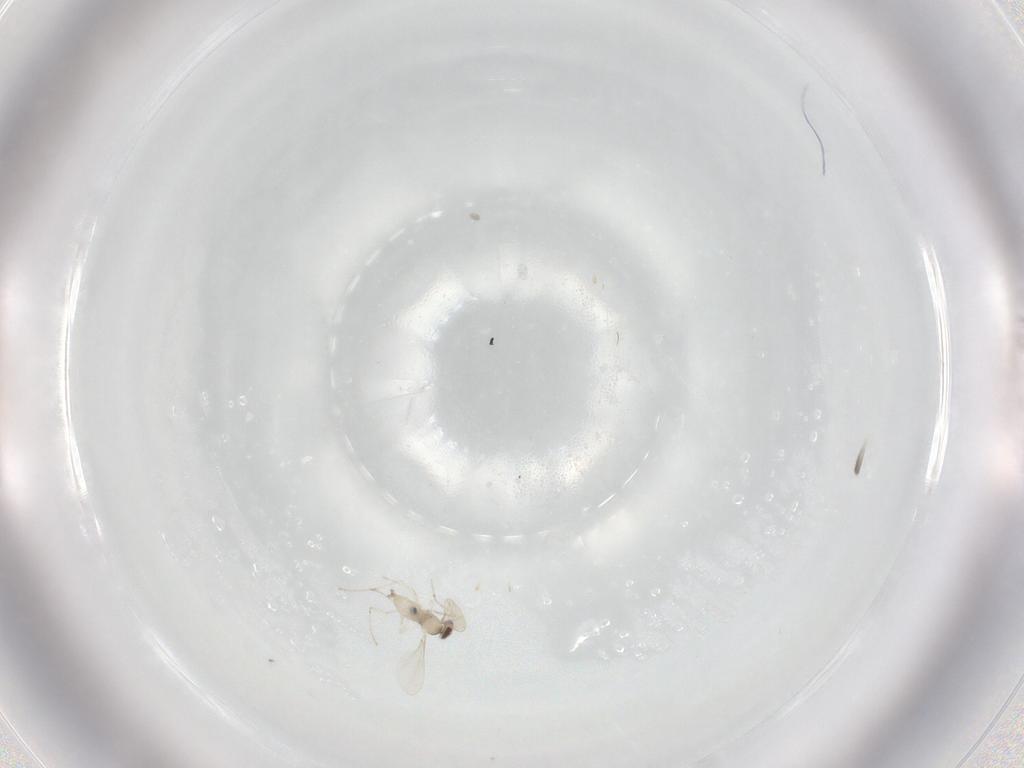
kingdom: Animalia
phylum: Arthropoda
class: Insecta
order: Diptera
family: Cecidomyiidae
